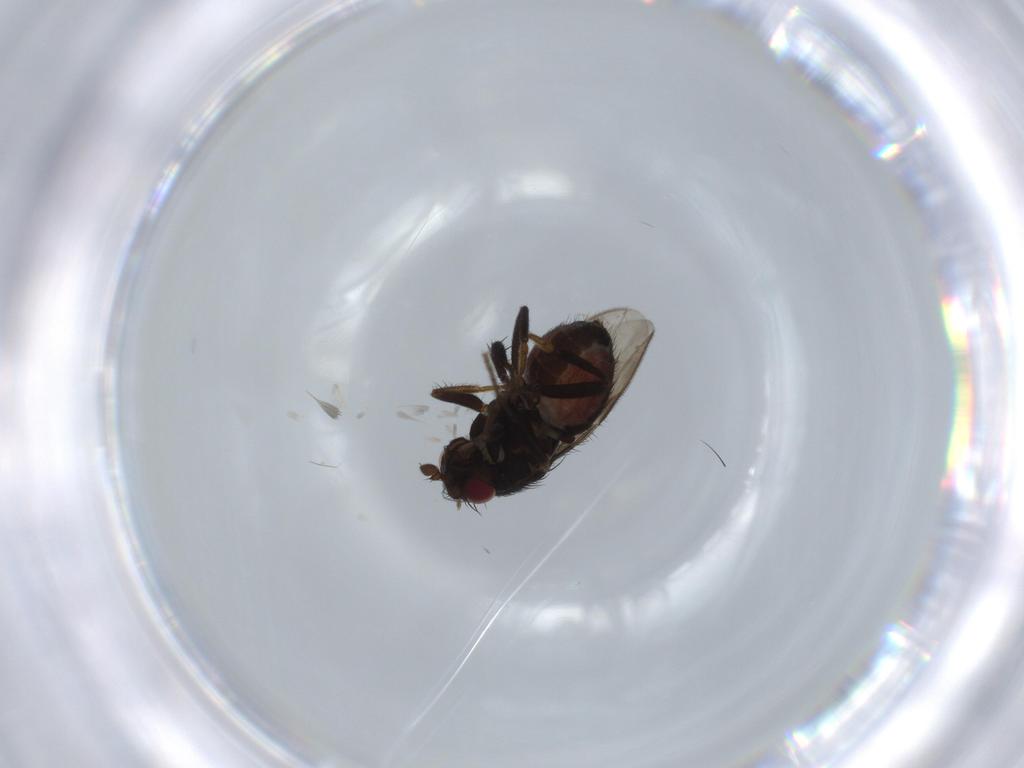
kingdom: Animalia
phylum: Arthropoda
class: Insecta
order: Diptera
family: Sphaeroceridae
